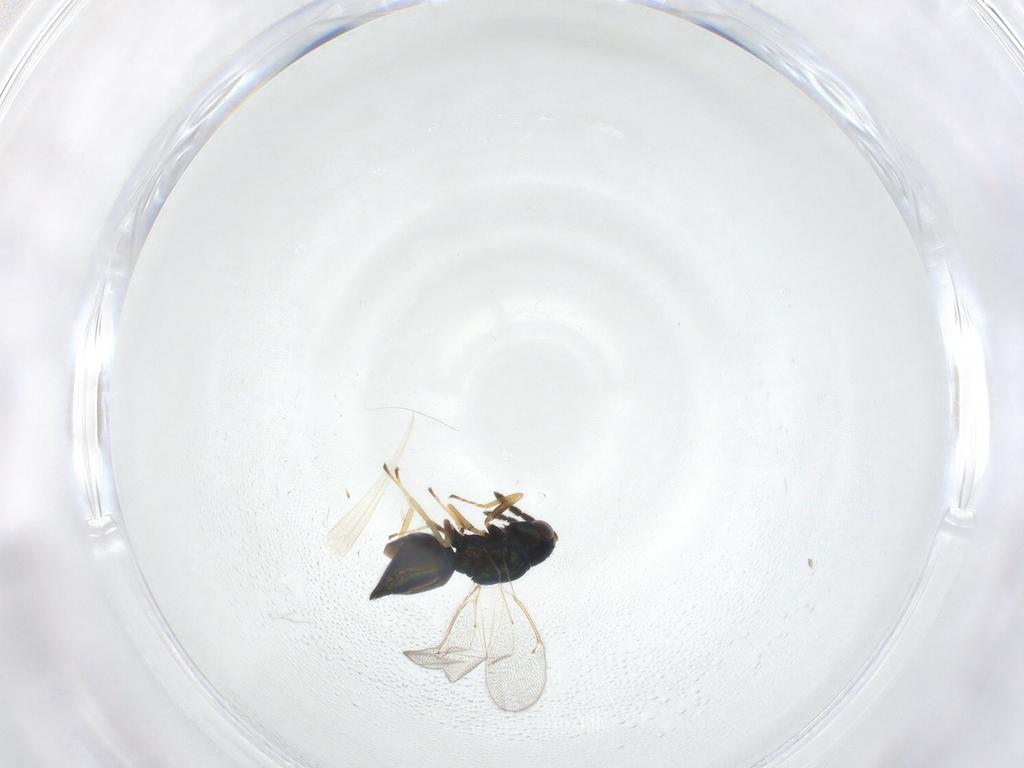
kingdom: Animalia
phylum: Arthropoda
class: Insecta
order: Hymenoptera
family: Eulophidae
